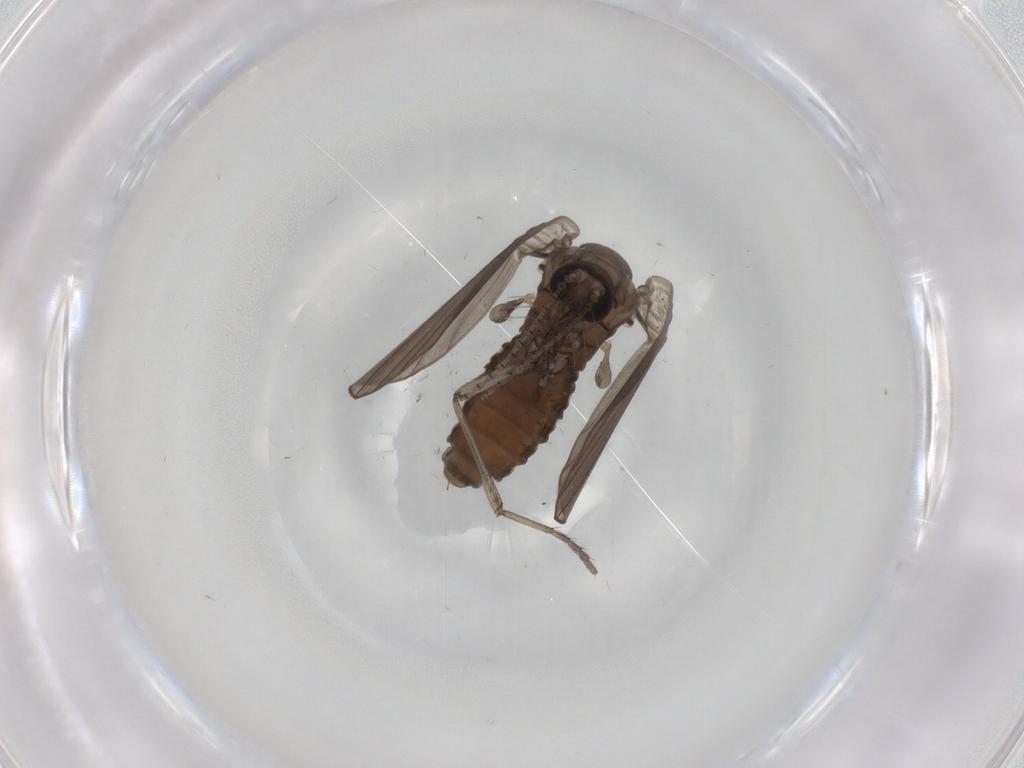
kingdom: Animalia
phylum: Arthropoda
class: Insecta
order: Diptera
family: Psychodidae
